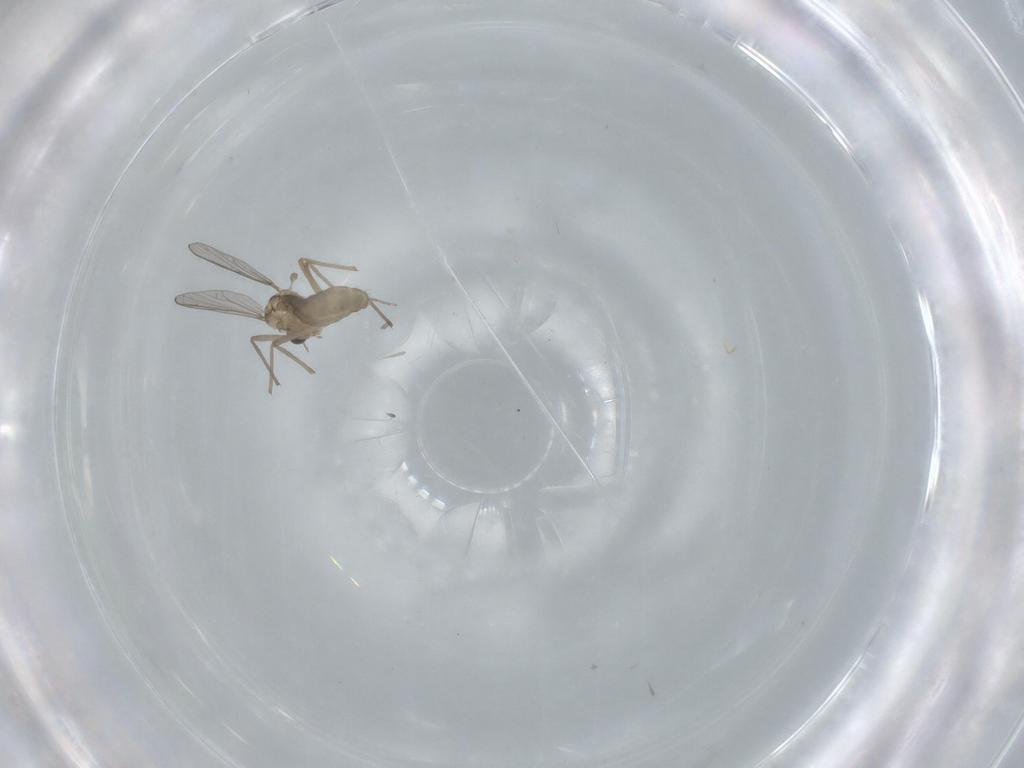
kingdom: Animalia
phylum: Arthropoda
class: Insecta
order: Diptera
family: Chironomidae
